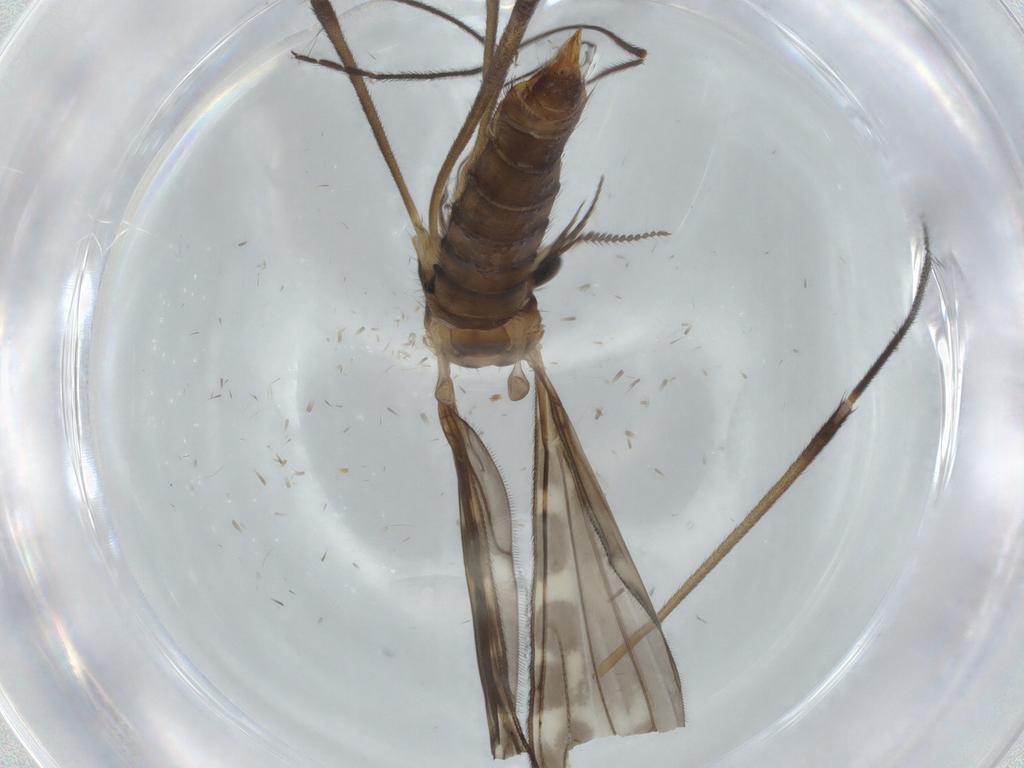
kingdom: Animalia
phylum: Arthropoda
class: Insecta
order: Diptera
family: Limoniidae
